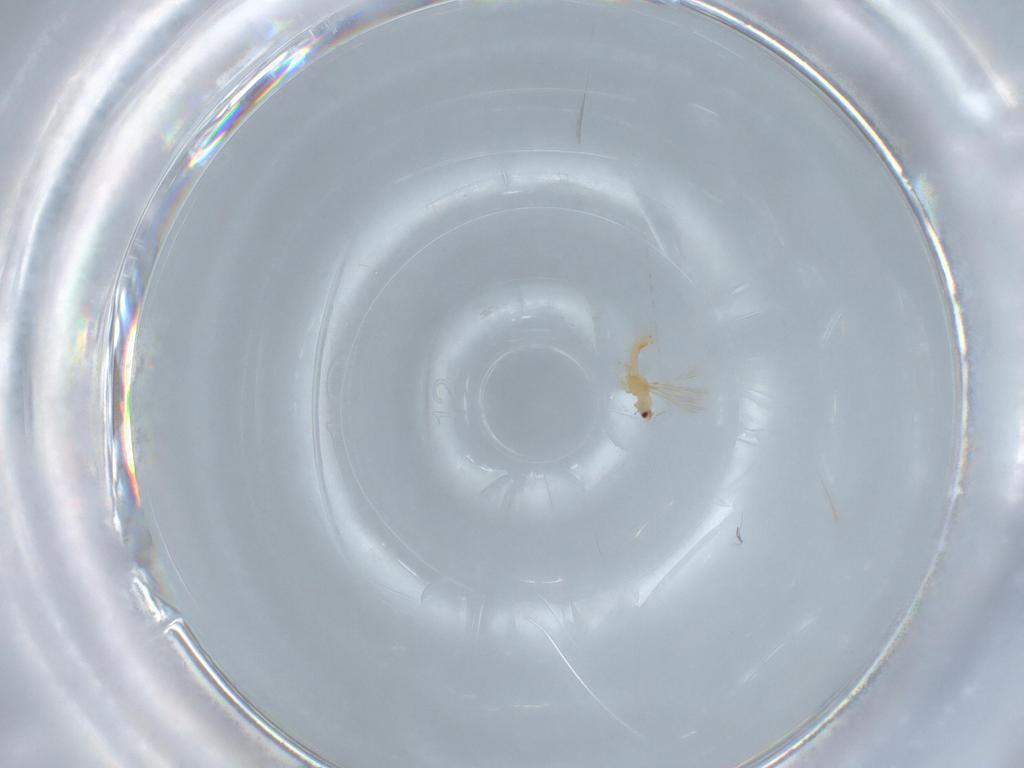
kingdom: Animalia
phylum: Arthropoda
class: Insecta
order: Thysanoptera
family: Thripidae
